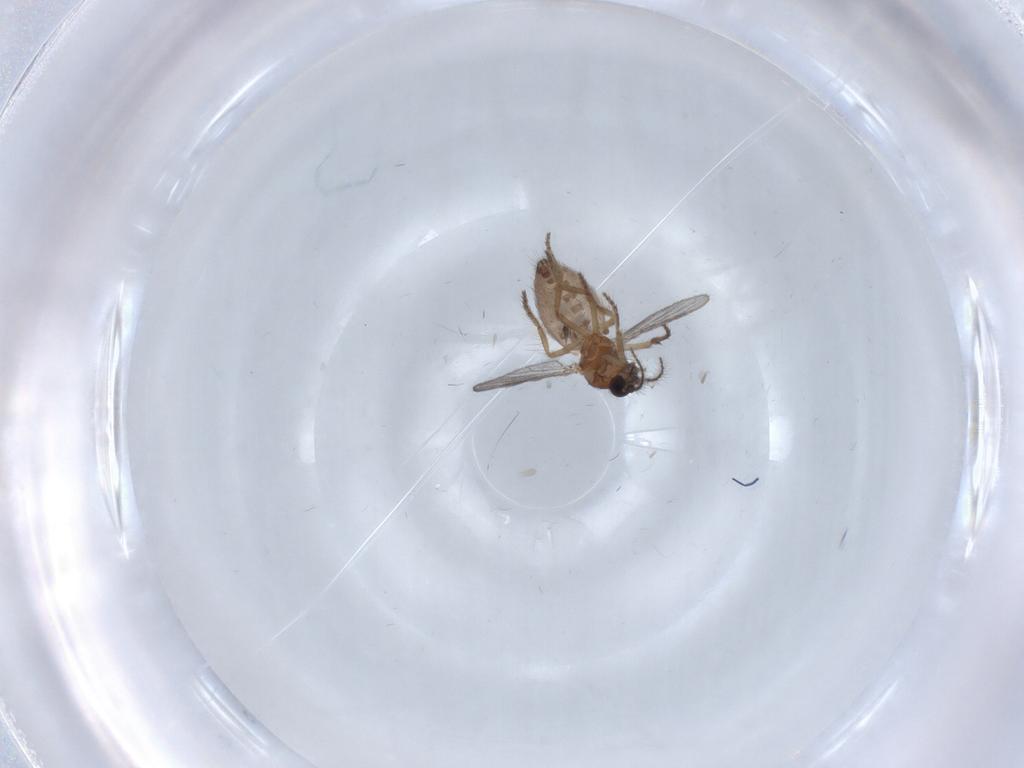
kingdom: Animalia
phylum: Arthropoda
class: Insecta
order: Diptera
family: Ceratopogonidae
